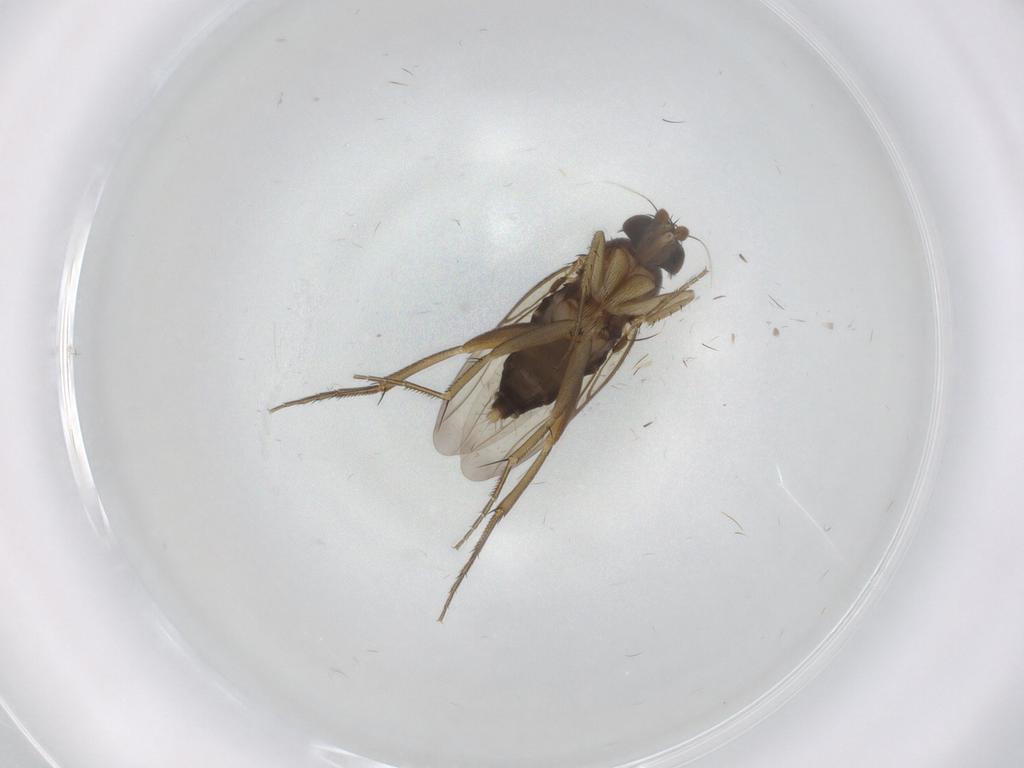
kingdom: Animalia
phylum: Arthropoda
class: Insecta
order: Diptera
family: Phoridae
